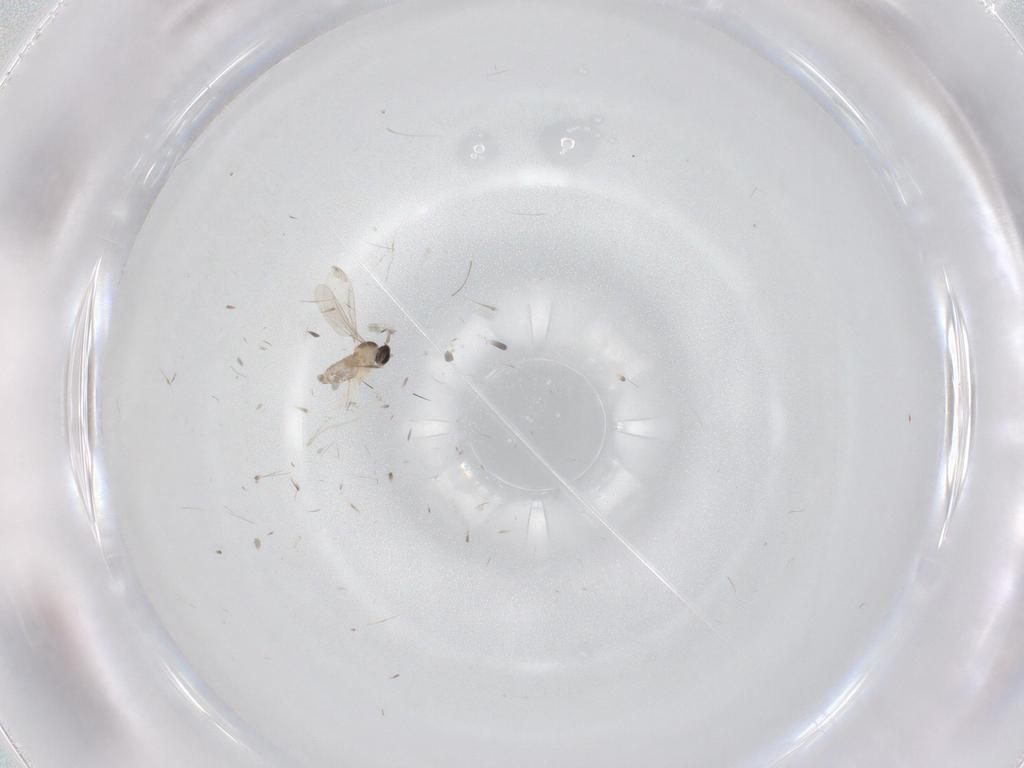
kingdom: Animalia
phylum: Arthropoda
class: Insecta
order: Diptera
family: Phoridae
